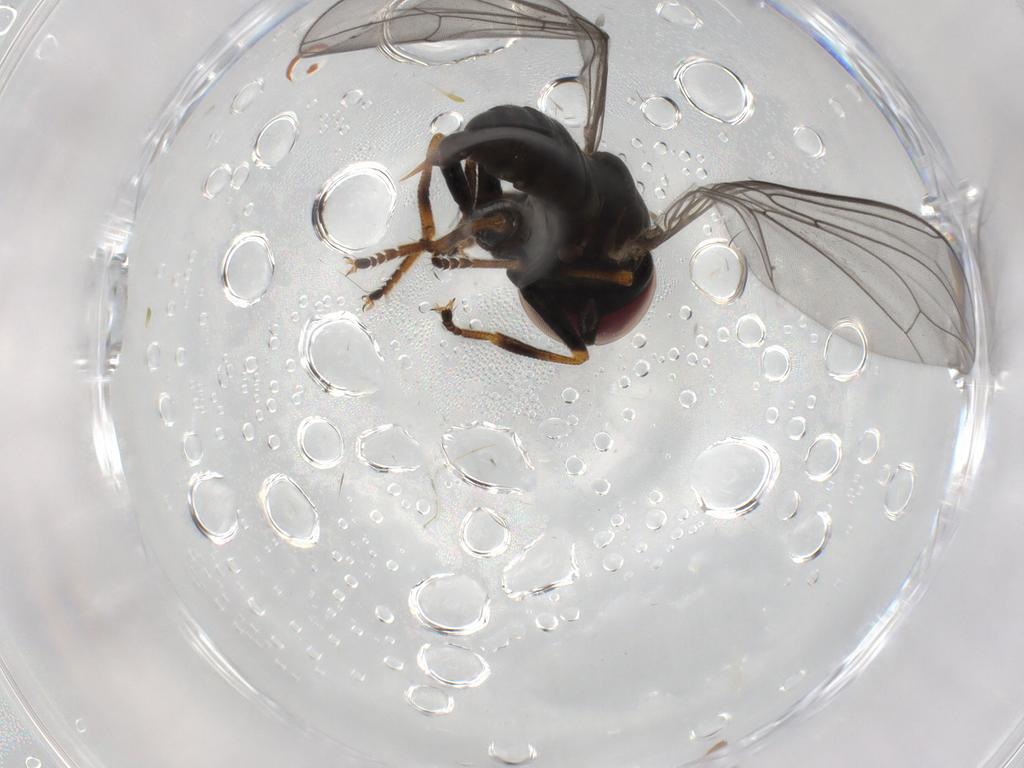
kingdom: Animalia
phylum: Arthropoda
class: Insecta
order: Diptera
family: Pipunculidae
